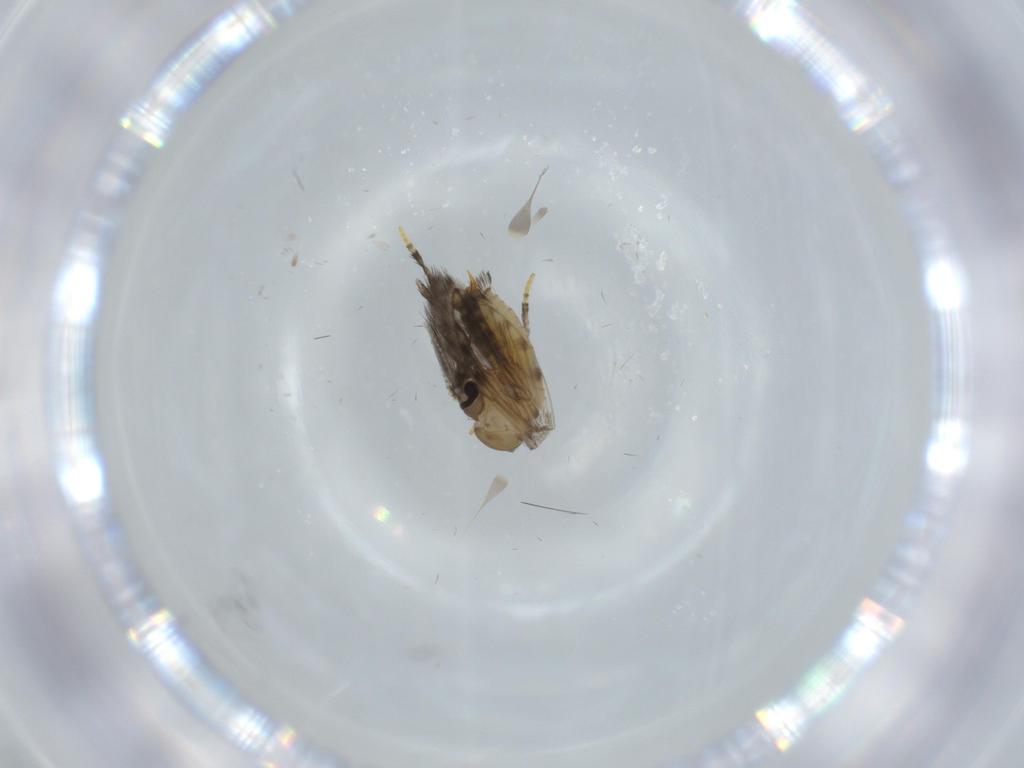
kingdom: Animalia
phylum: Arthropoda
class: Insecta
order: Diptera
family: Psychodidae
